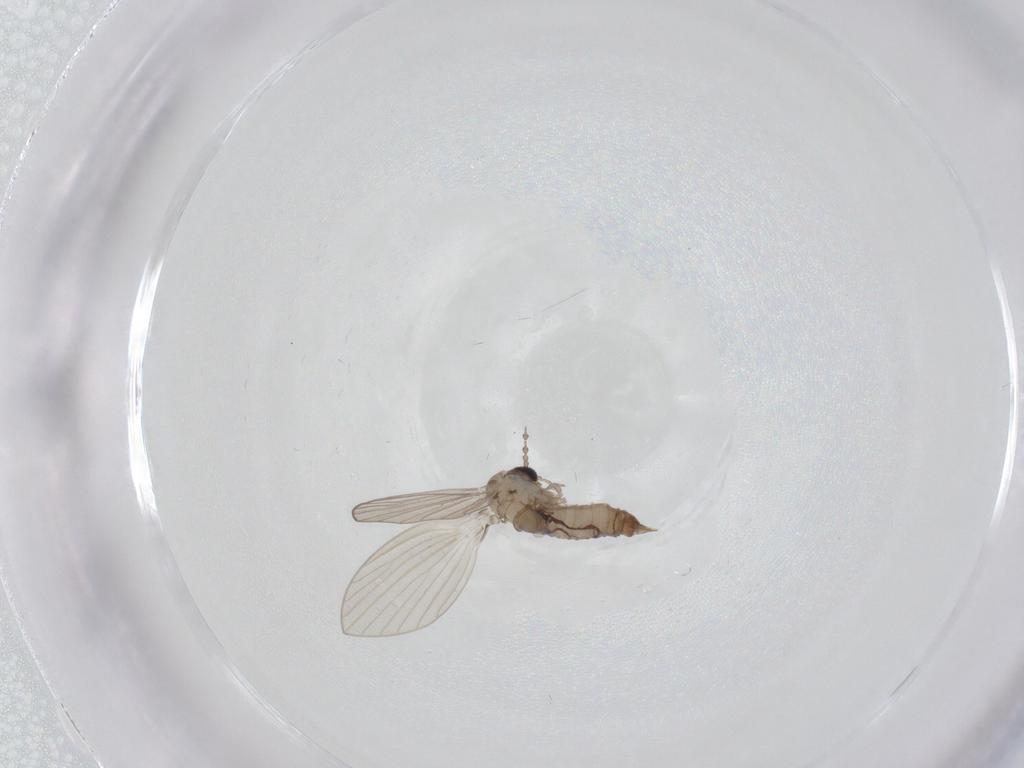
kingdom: Animalia
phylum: Arthropoda
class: Insecta
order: Diptera
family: Psychodidae
